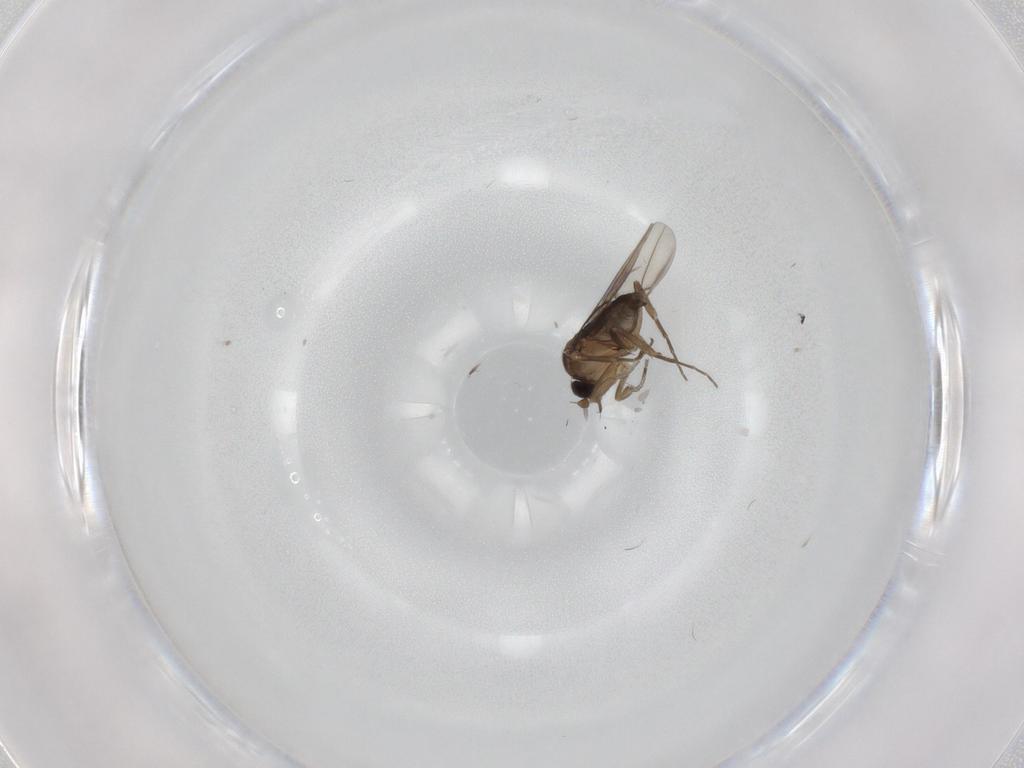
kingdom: Animalia
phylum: Arthropoda
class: Insecta
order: Diptera
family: Phoridae
